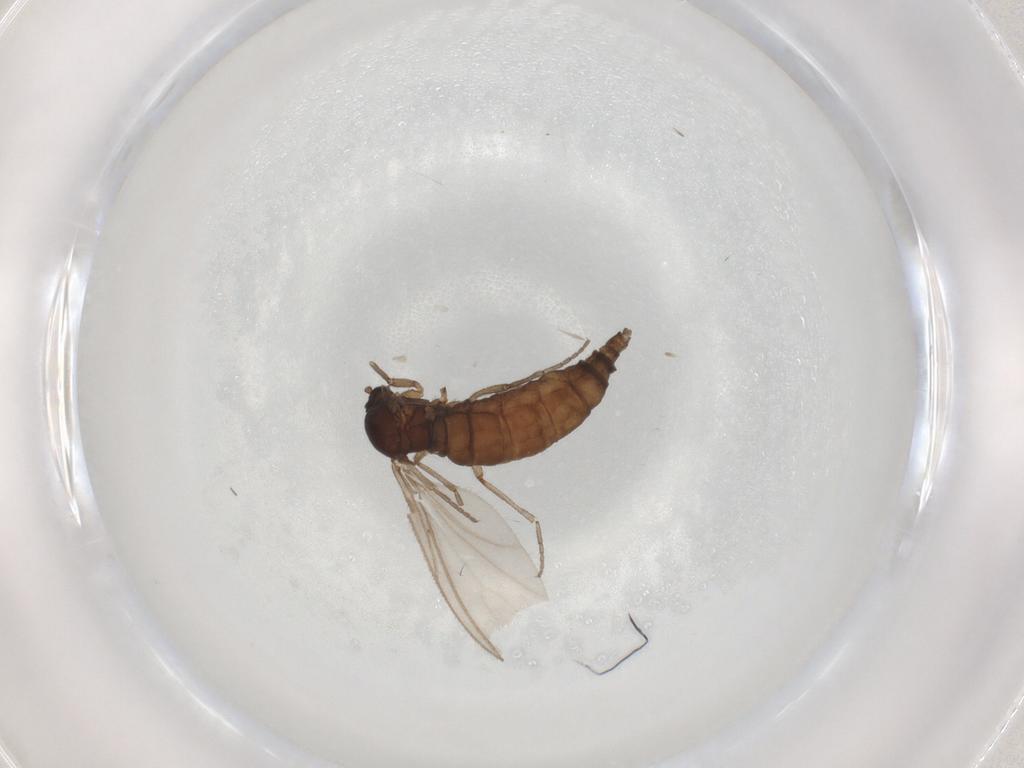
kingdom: Animalia
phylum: Arthropoda
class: Insecta
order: Diptera
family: Sciaridae
